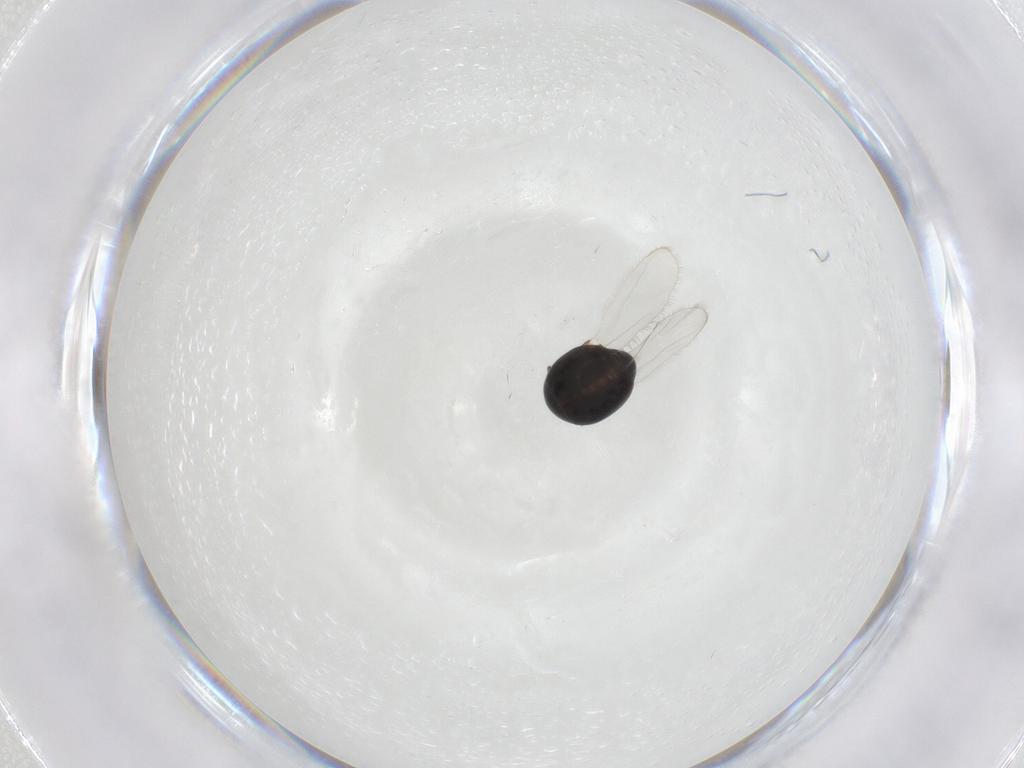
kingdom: Animalia
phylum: Arthropoda
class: Insecta
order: Coleoptera
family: Corylophidae
